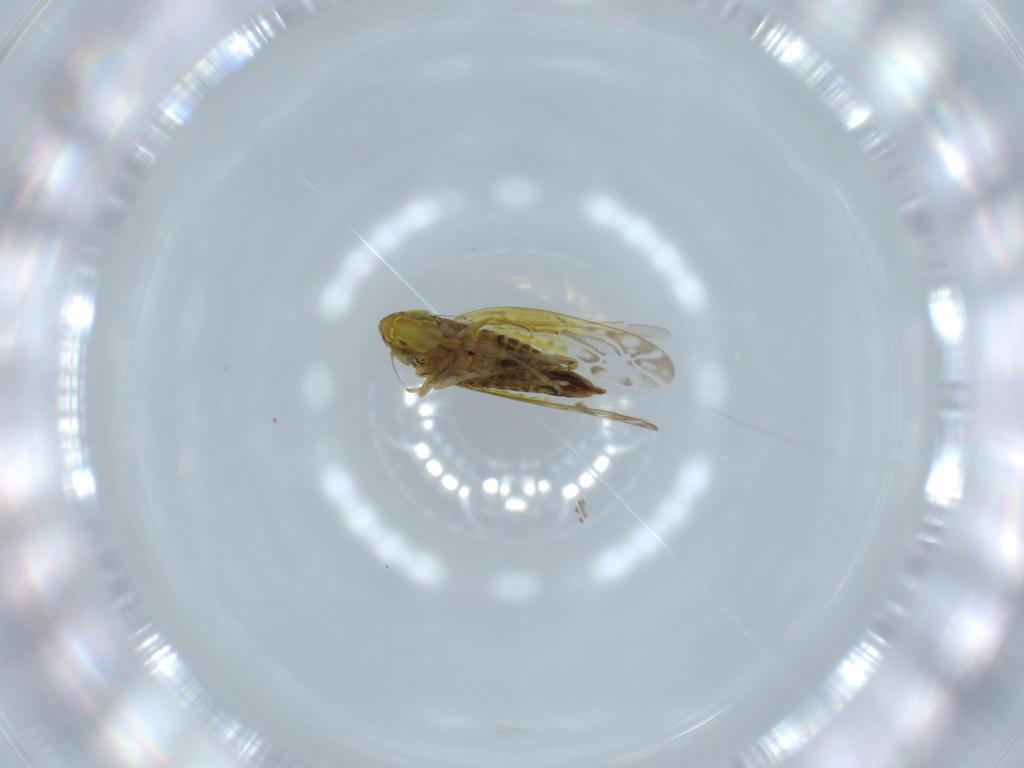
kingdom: Animalia
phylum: Arthropoda
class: Insecta
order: Hemiptera
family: Aleyrodidae
